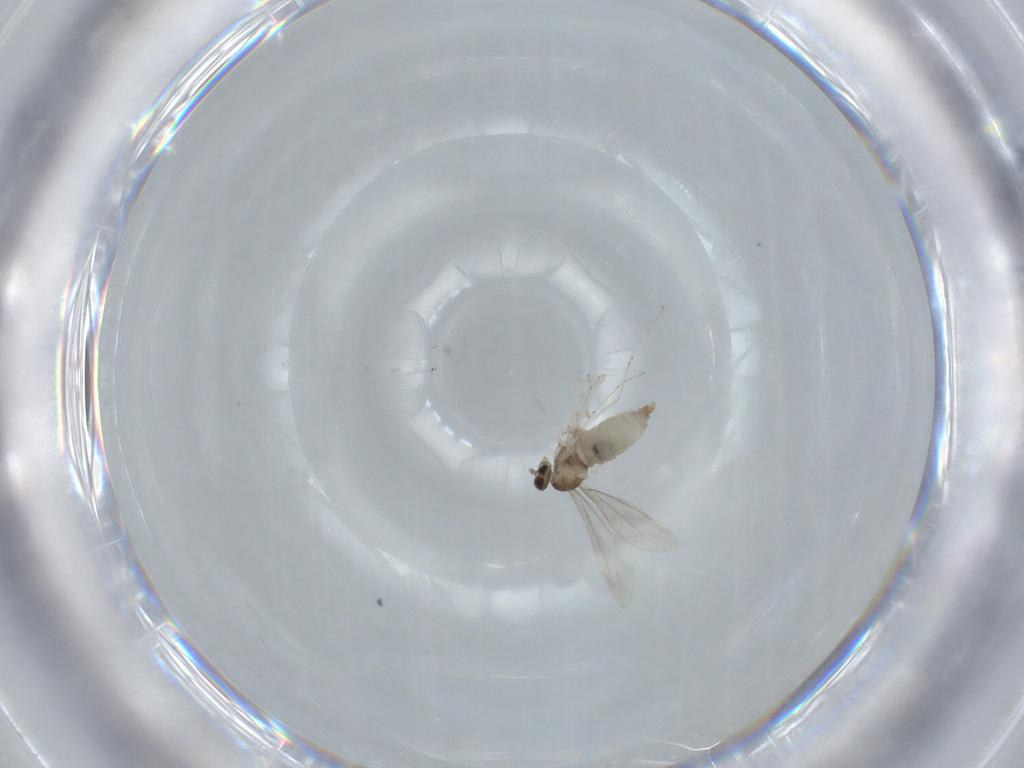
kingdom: Animalia
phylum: Arthropoda
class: Insecta
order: Diptera
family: Cecidomyiidae
